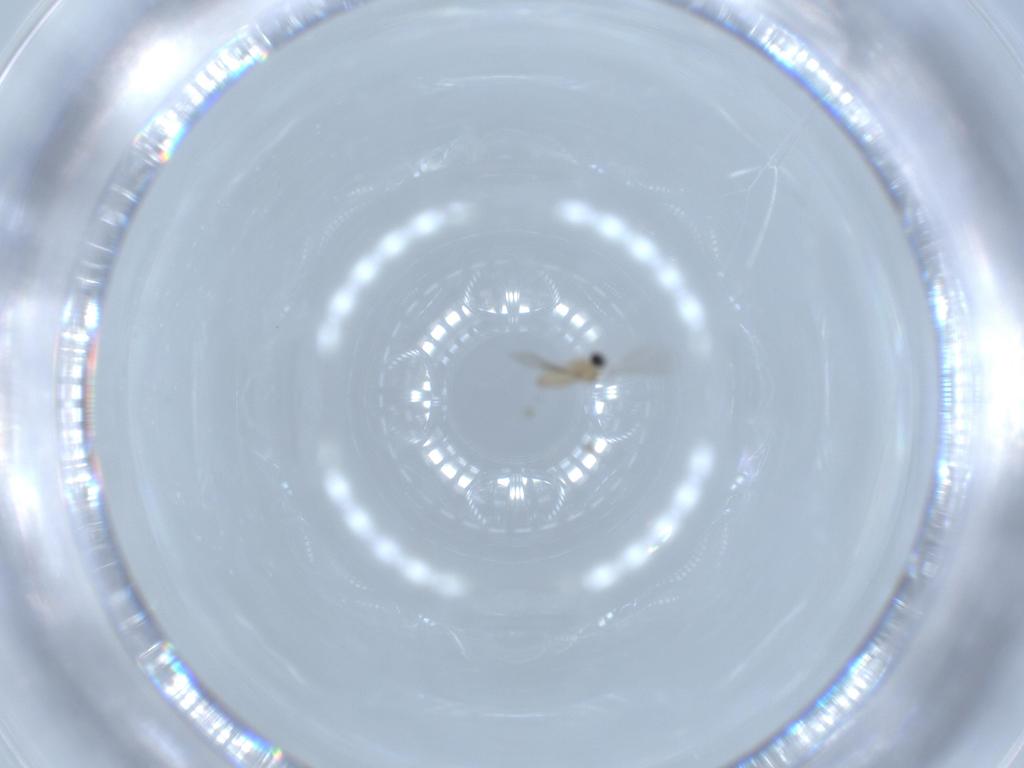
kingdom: Animalia
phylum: Arthropoda
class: Insecta
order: Diptera
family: Cecidomyiidae
